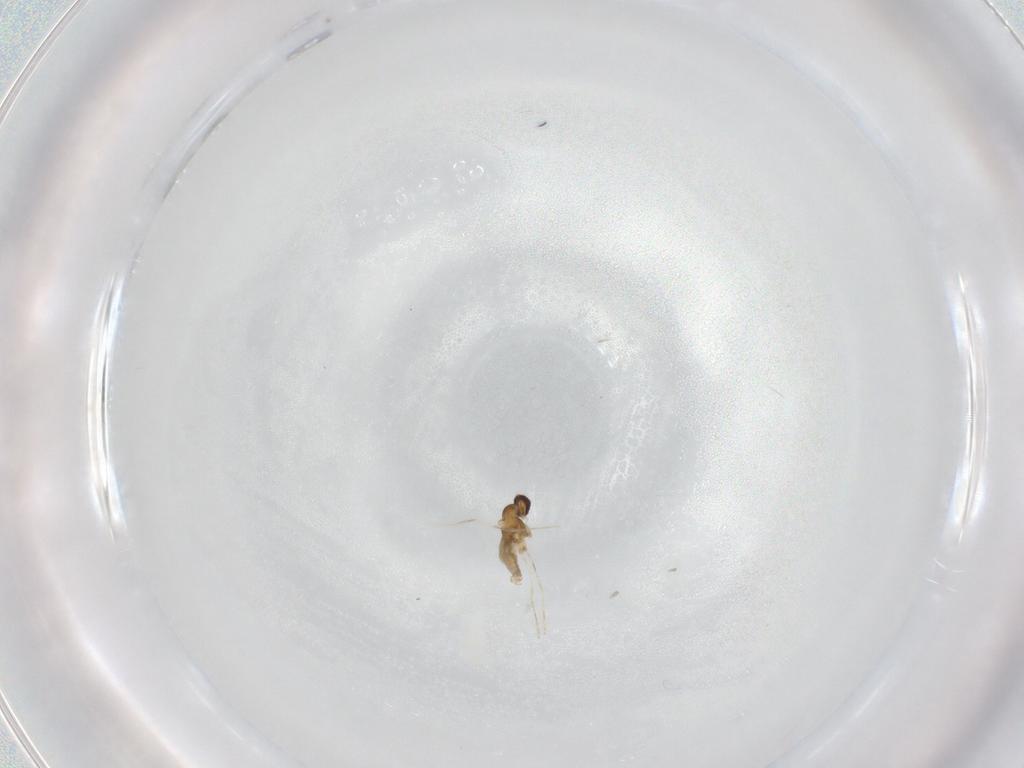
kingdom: Animalia
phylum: Arthropoda
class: Insecta
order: Diptera
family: Cecidomyiidae
